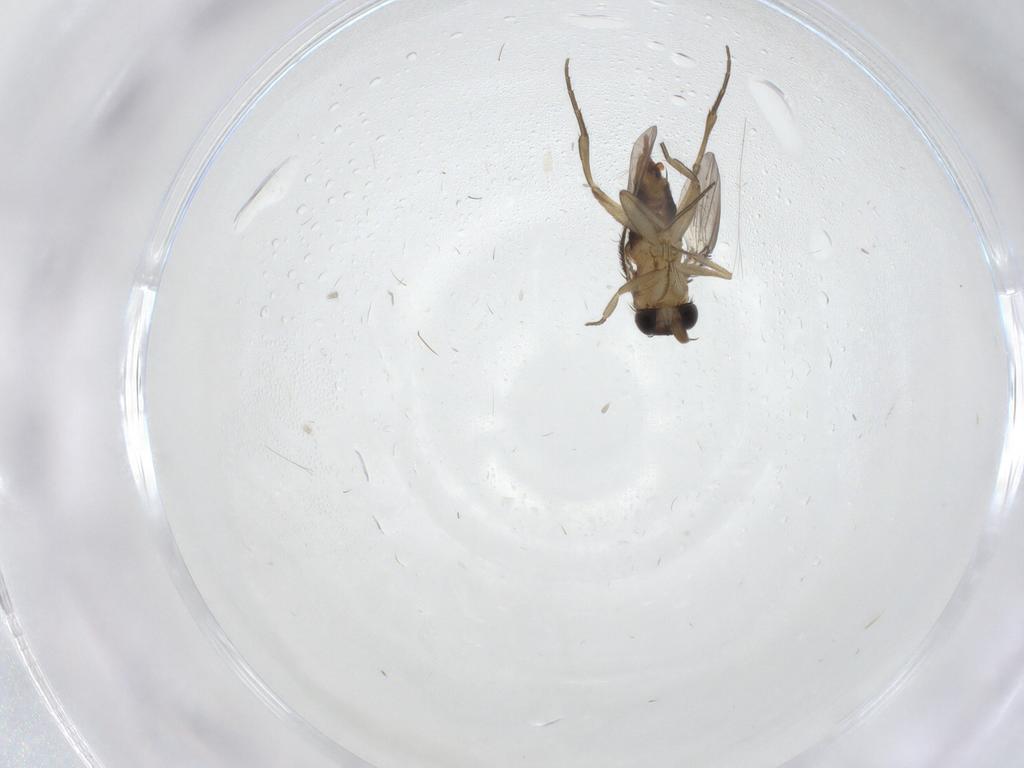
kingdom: Animalia
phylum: Arthropoda
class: Insecta
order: Diptera
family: Phoridae
